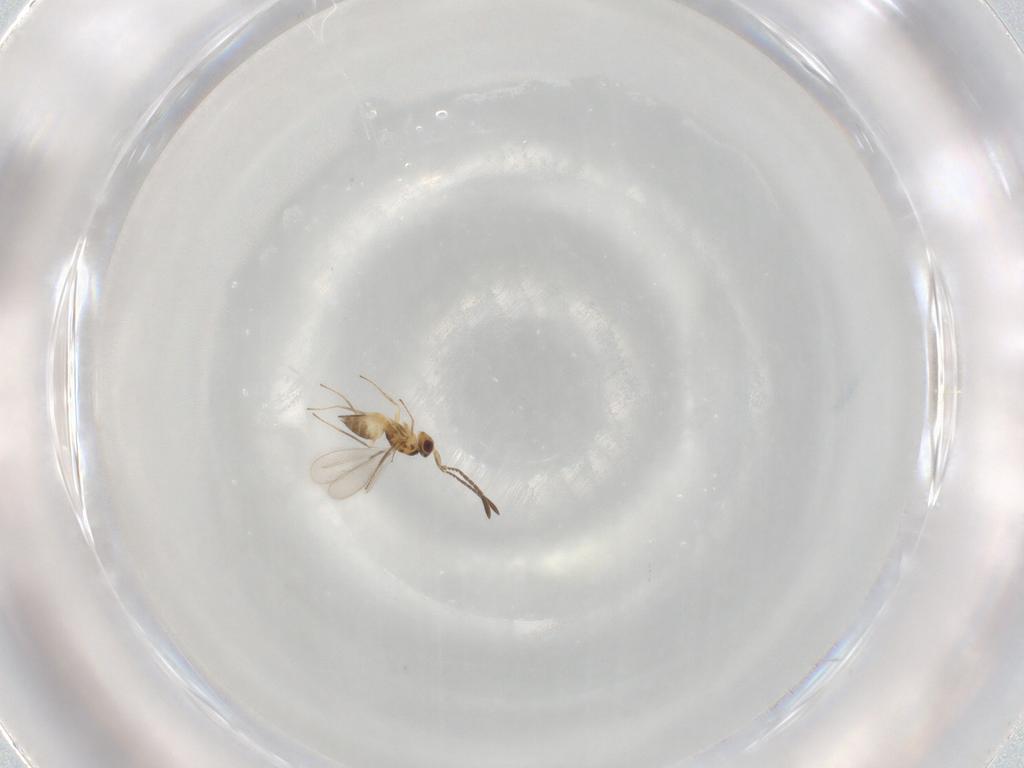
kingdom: Animalia
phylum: Arthropoda
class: Insecta
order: Hymenoptera
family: Mymaridae
